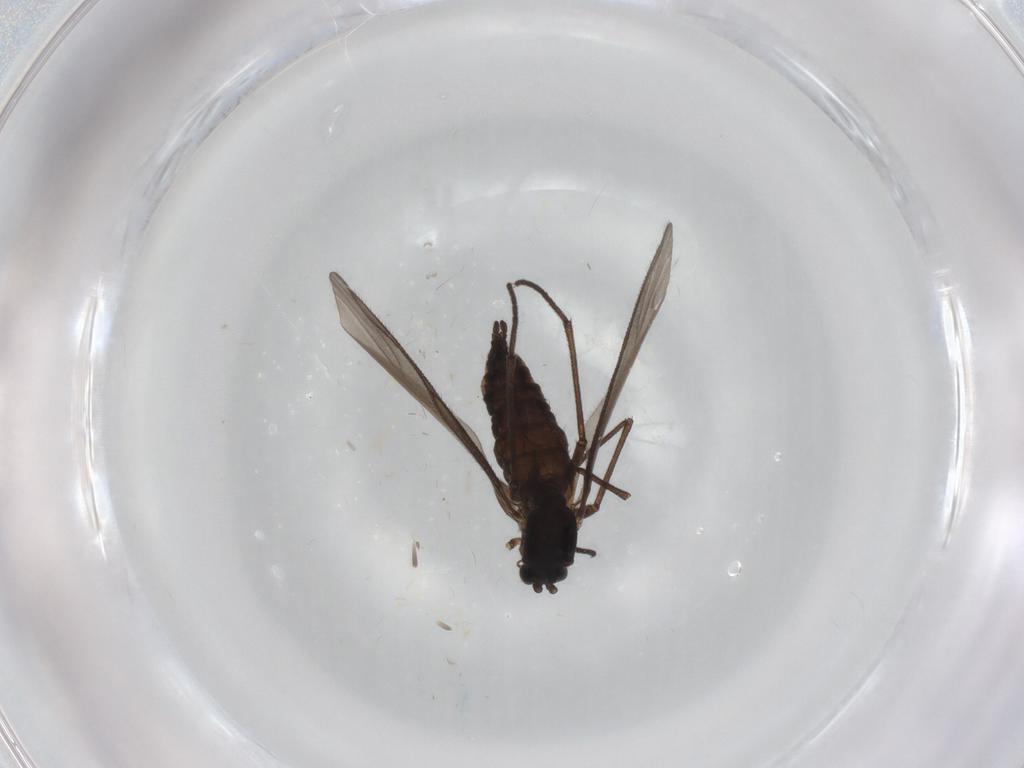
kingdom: Animalia
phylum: Arthropoda
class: Insecta
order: Diptera
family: Sciaridae
